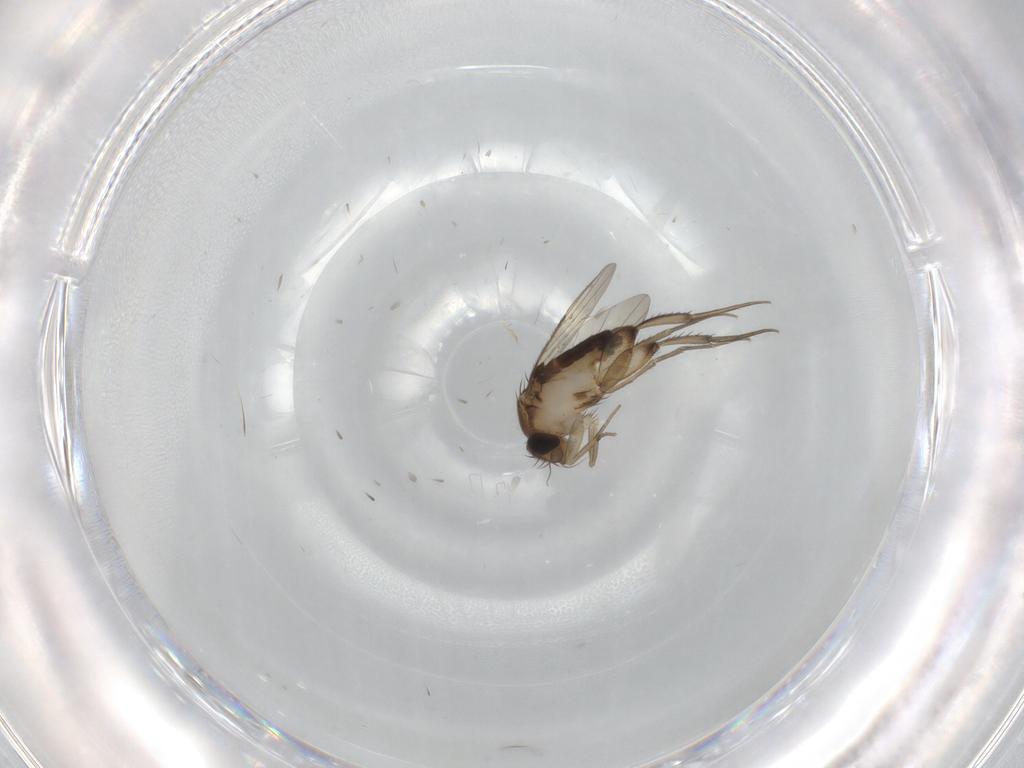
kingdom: Animalia
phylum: Arthropoda
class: Insecta
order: Diptera
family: Phoridae
